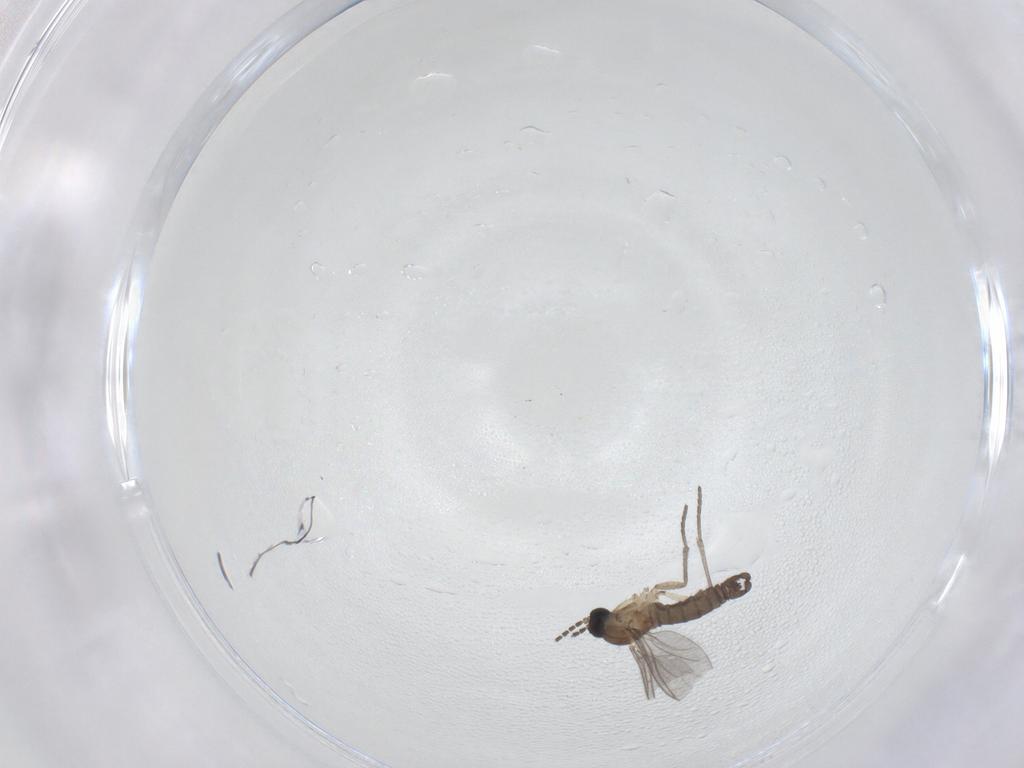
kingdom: Animalia
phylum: Arthropoda
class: Insecta
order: Diptera
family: Sciaridae
